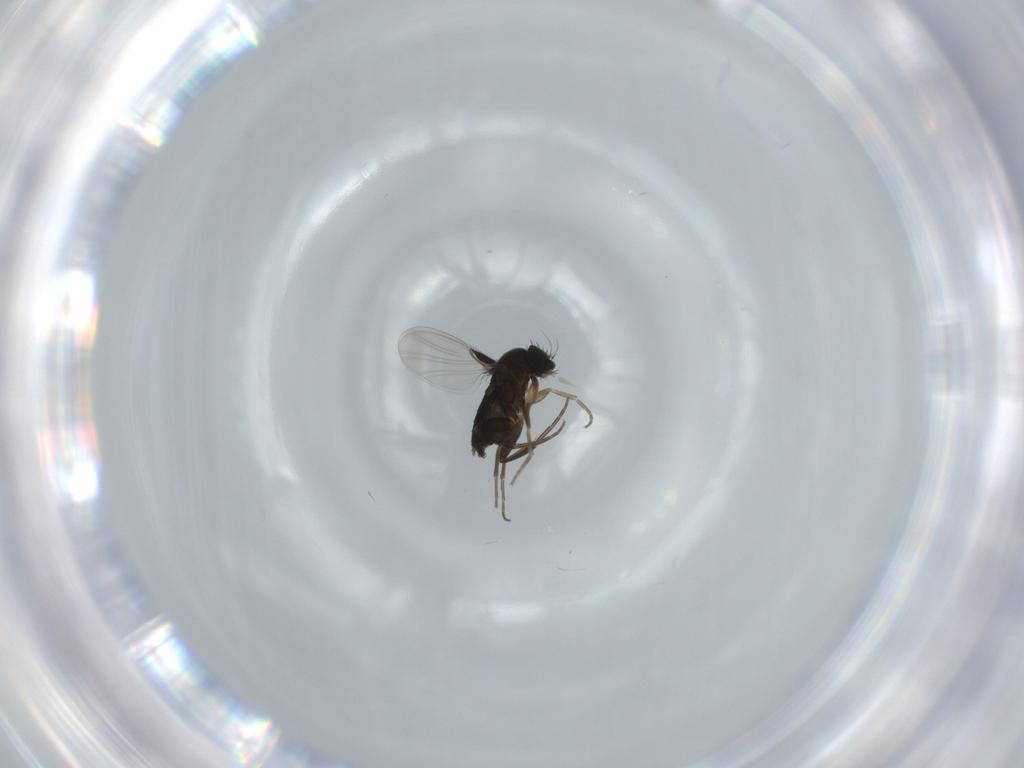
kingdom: Animalia
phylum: Arthropoda
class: Insecta
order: Diptera
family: Phoridae
